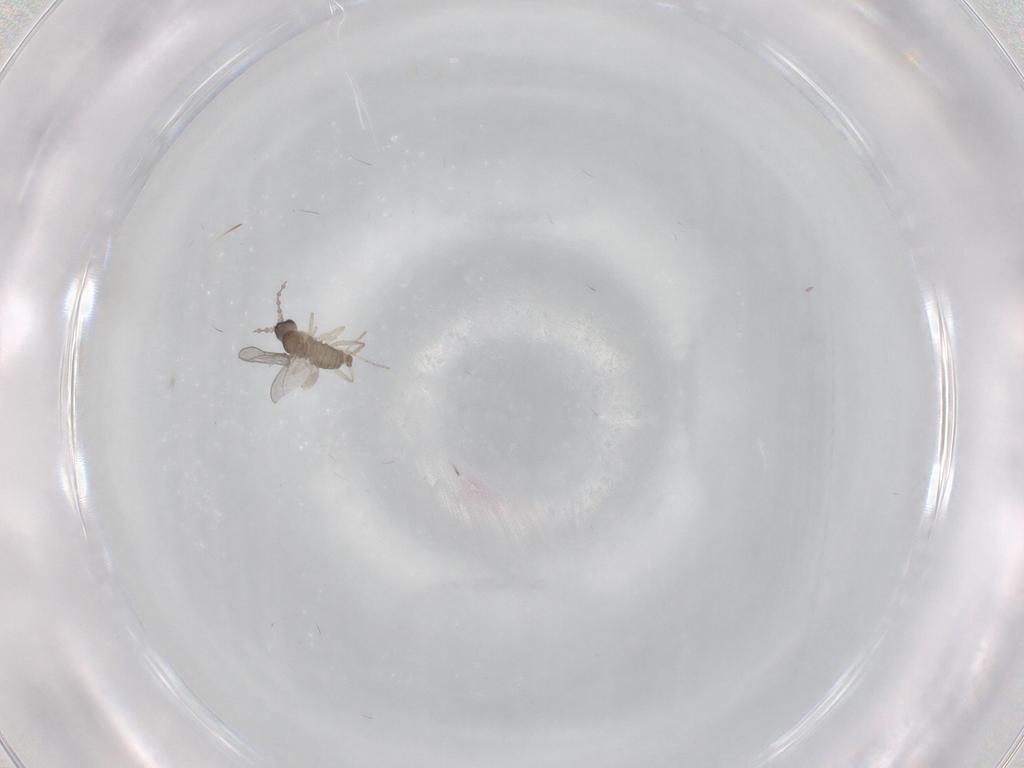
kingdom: Animalia
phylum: Arthropoda
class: Insecta
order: Diptera
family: Cecidomyiidae
